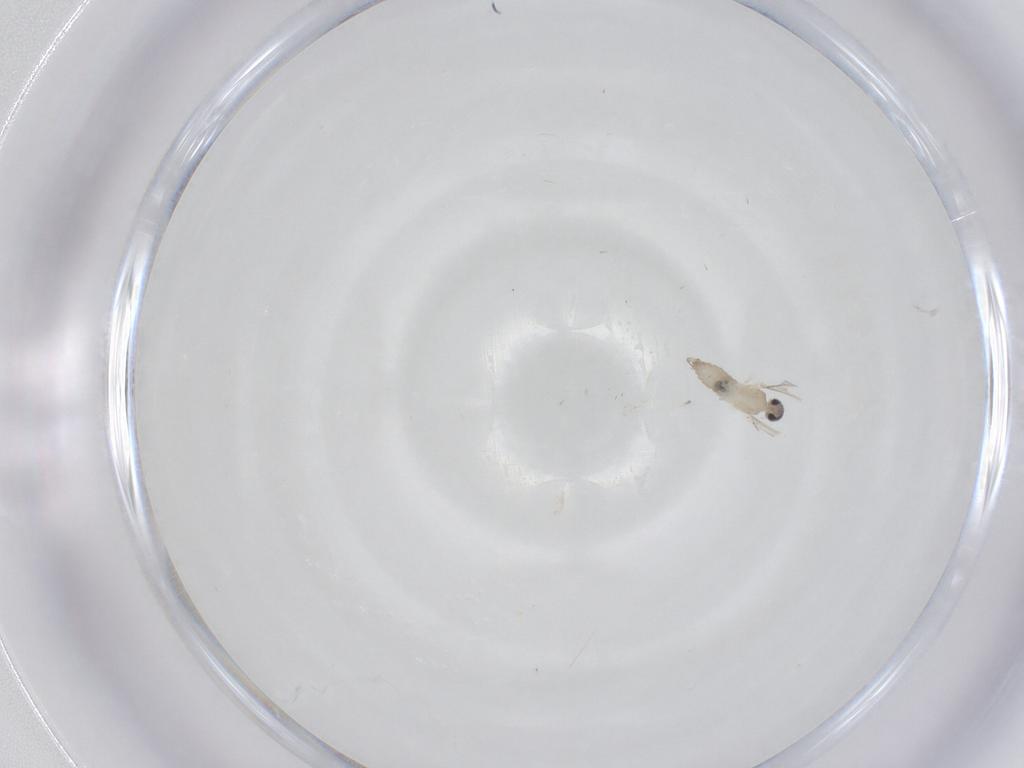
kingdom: Animalia
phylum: Arthropoda
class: Insecta
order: Diptera
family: Cecidomyiidae
